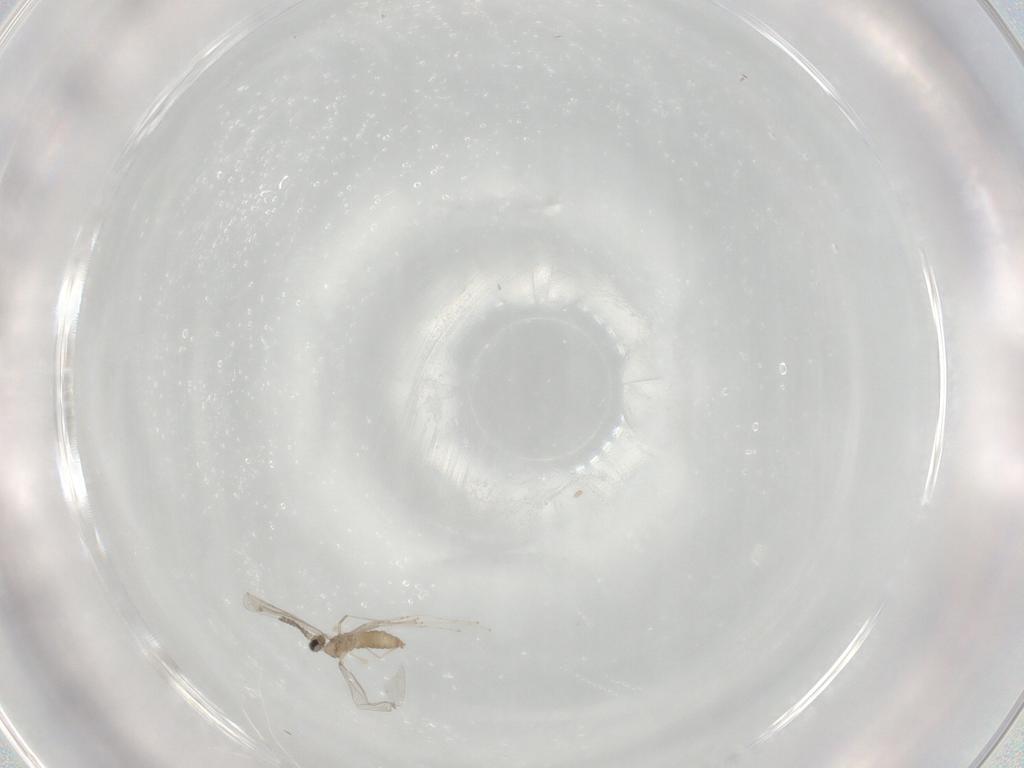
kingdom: Animalia
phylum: Arthropoda
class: Insecta
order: Diptera
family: Cecidomyiidae
